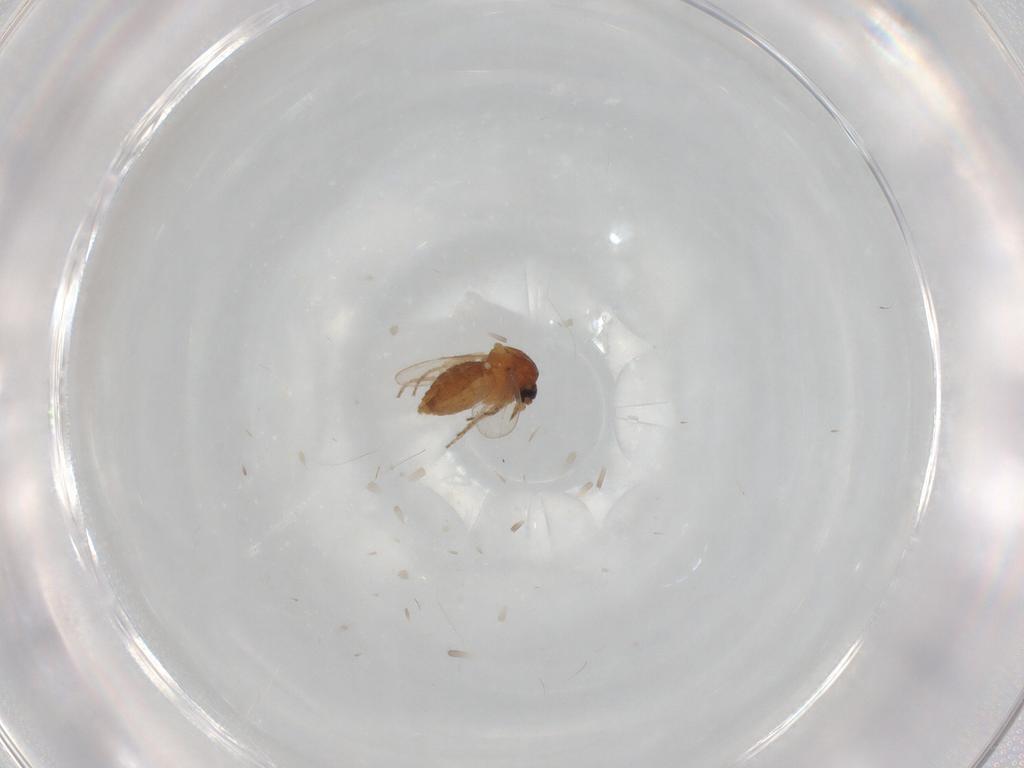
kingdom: Animalia
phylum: Arthropoda
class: Insecta
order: Diptera
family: Ceratopogonidae
